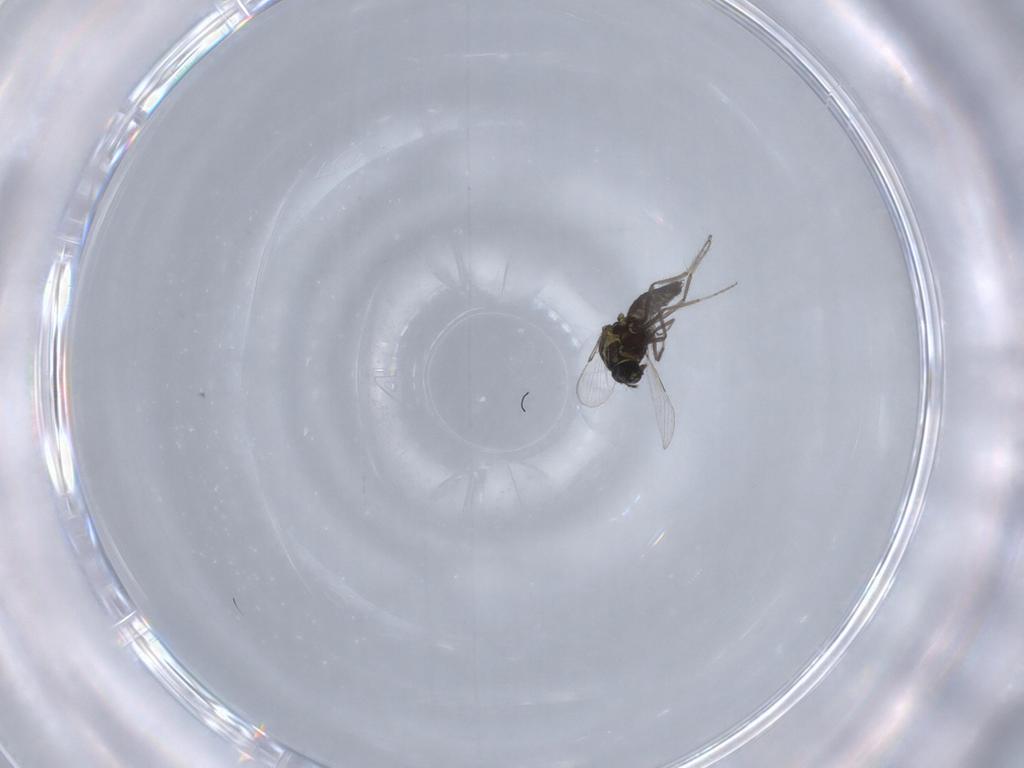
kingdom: Animalia
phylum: Arthropoda
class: Insecta
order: Diptera
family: Ceratopogonidae
